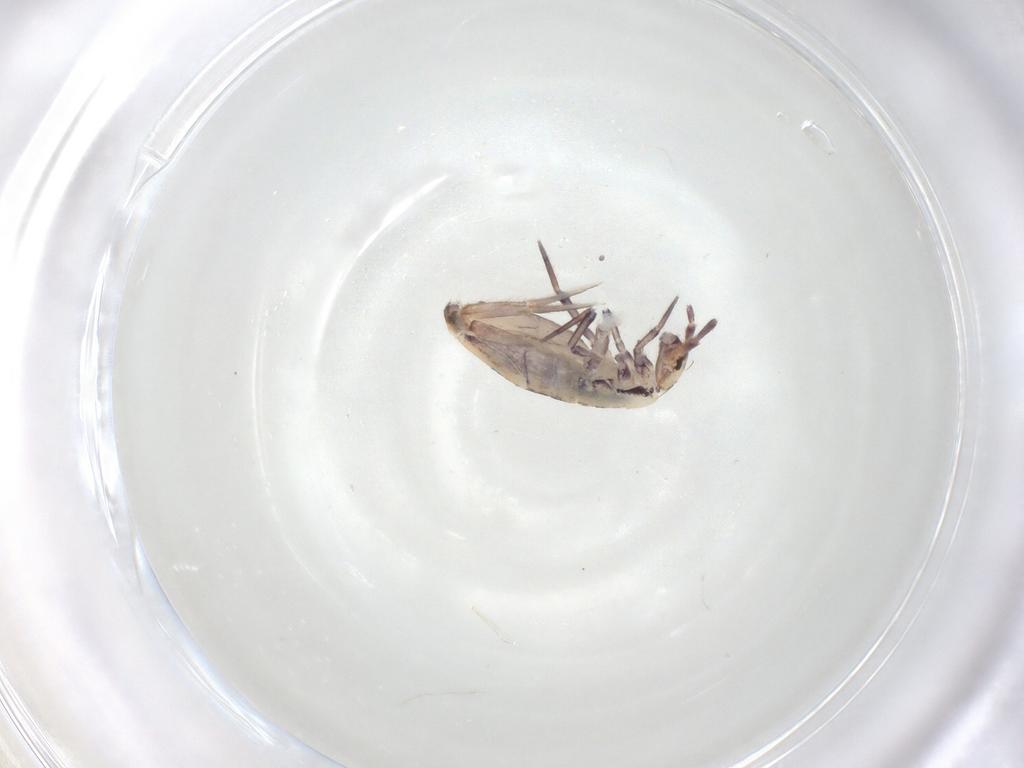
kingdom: Animalia
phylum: Arthropoda
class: Collembola
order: Entomobryomorpha
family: Entomobryidae
